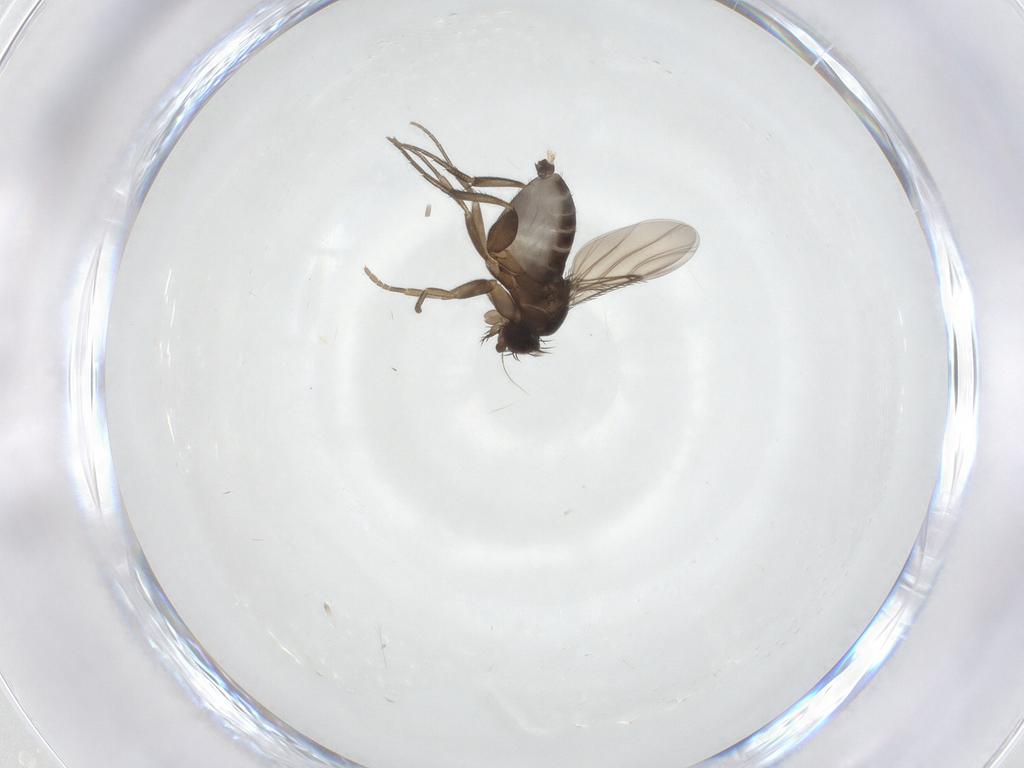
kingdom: Animalia
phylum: Arthropoda
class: Insecta
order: Diptera
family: Phoridae
